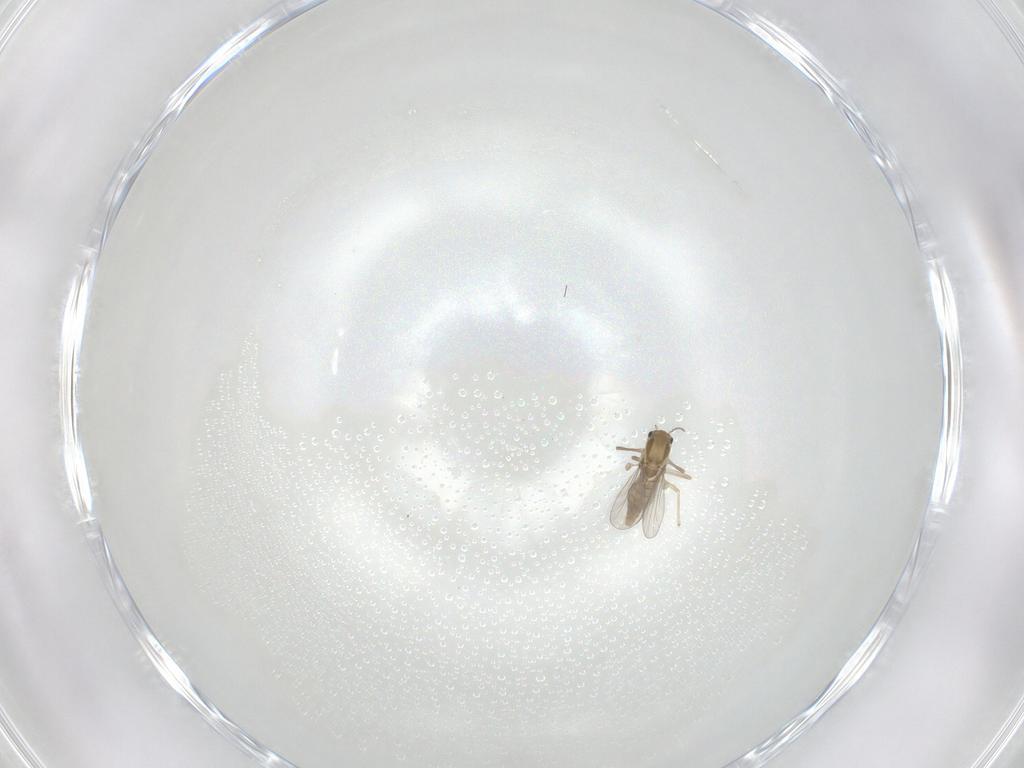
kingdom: Animalia
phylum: Arthropoda
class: Insecta
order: Diptera
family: Chironomidae
